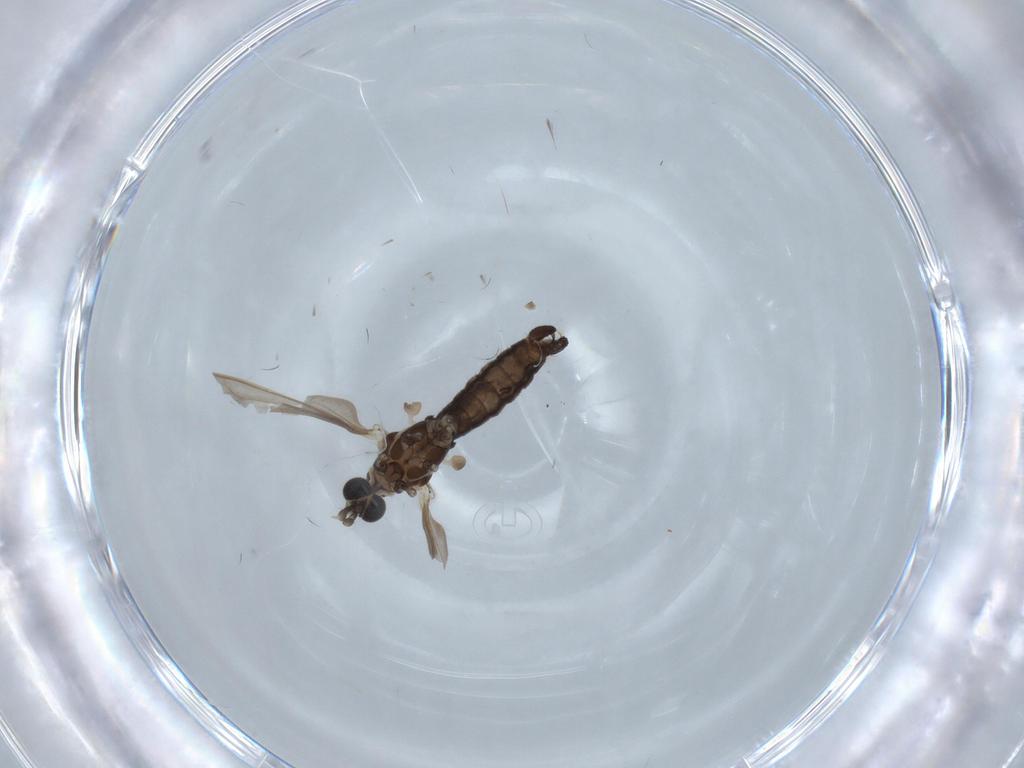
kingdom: Animalia
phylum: Arthropoda
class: Insecta
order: Diptera
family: Limoniidae
